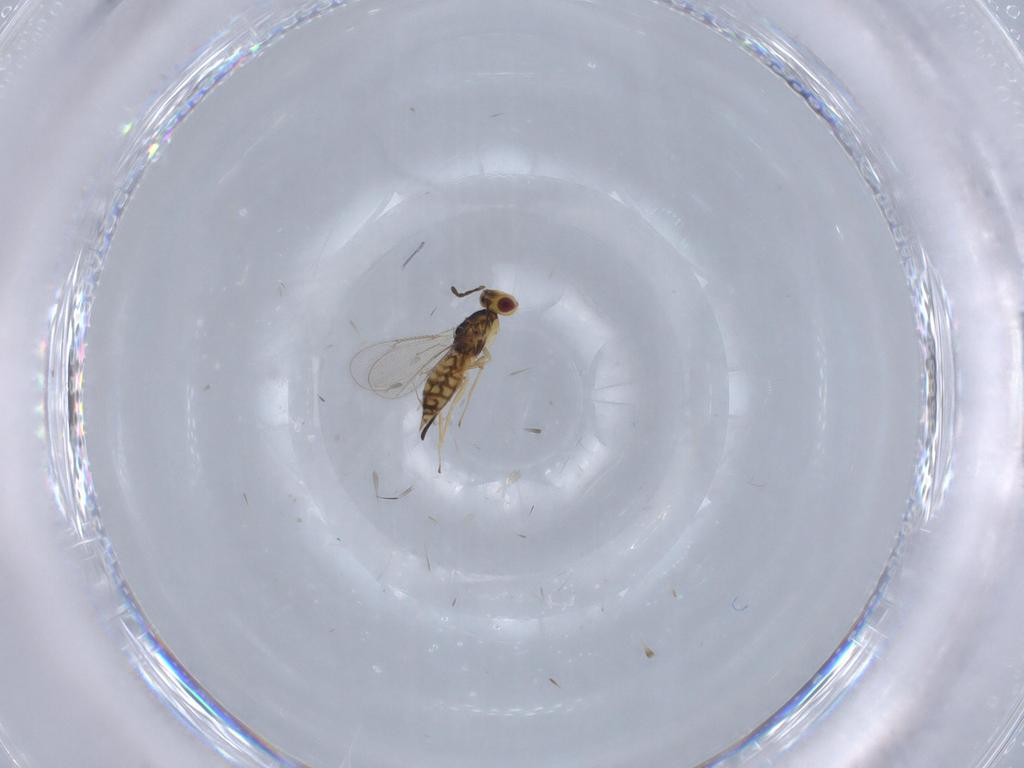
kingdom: Animalia
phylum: Arthropoda
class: Insecta
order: Hymenoptera
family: Eulophidae
